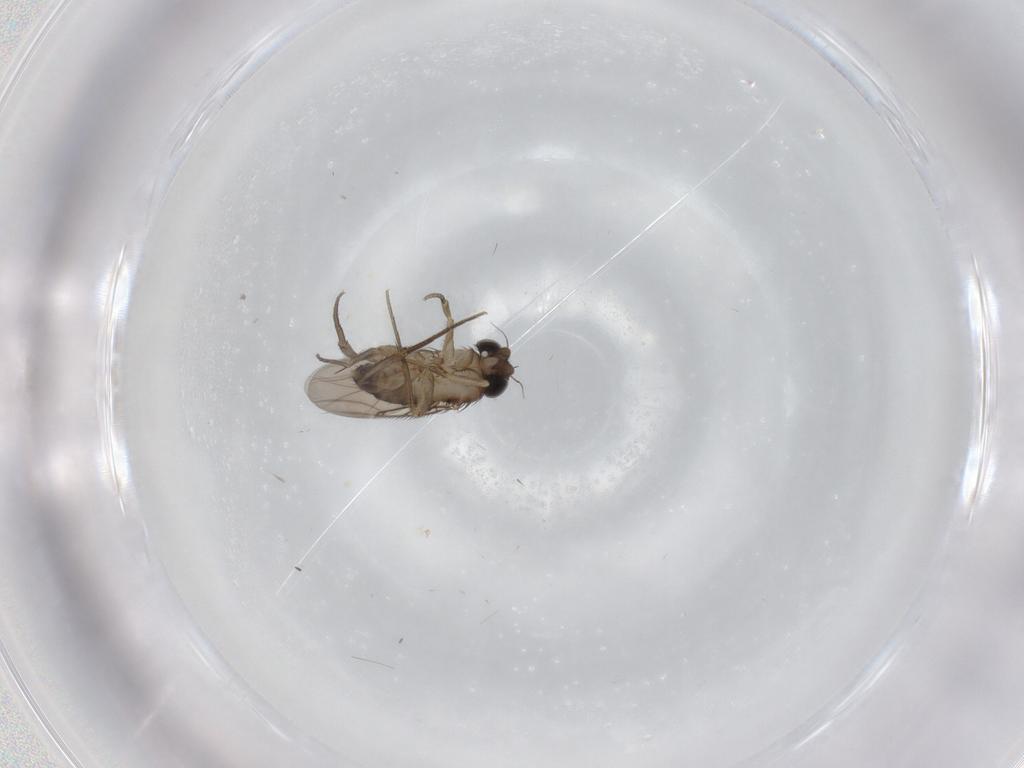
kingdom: Animalia
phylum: Arthropoda
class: Insecta
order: Diptera
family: Phoridae
